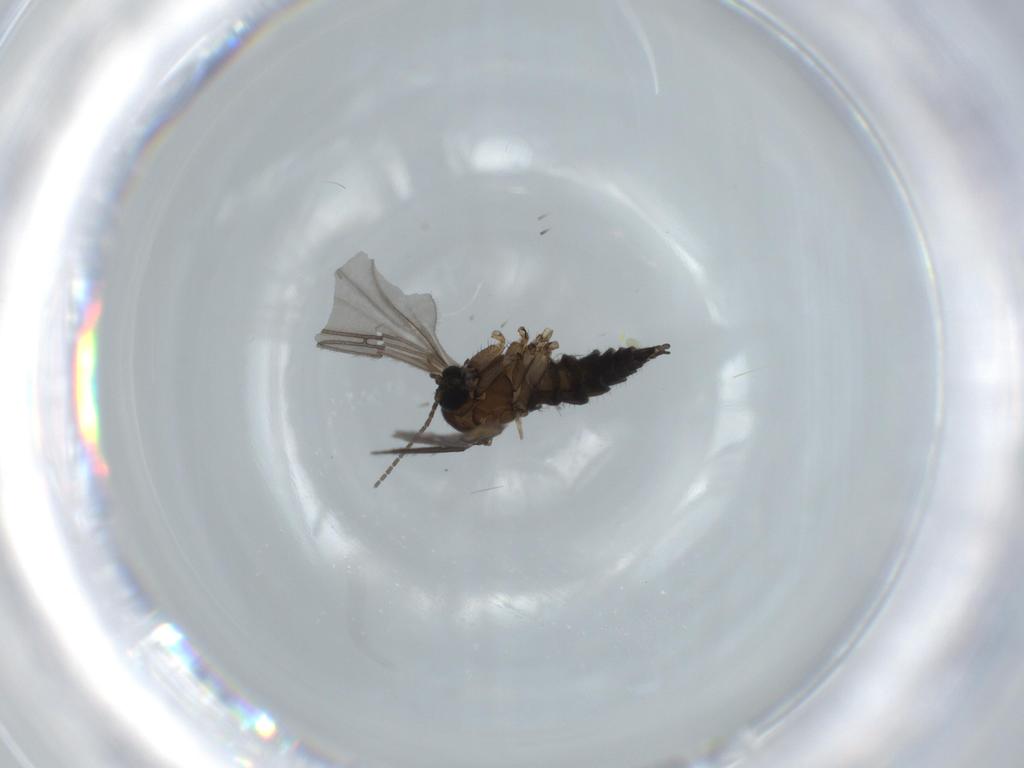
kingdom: Animalia
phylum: Arthropoda
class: Insecta
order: Diptera
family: Sciaridae
